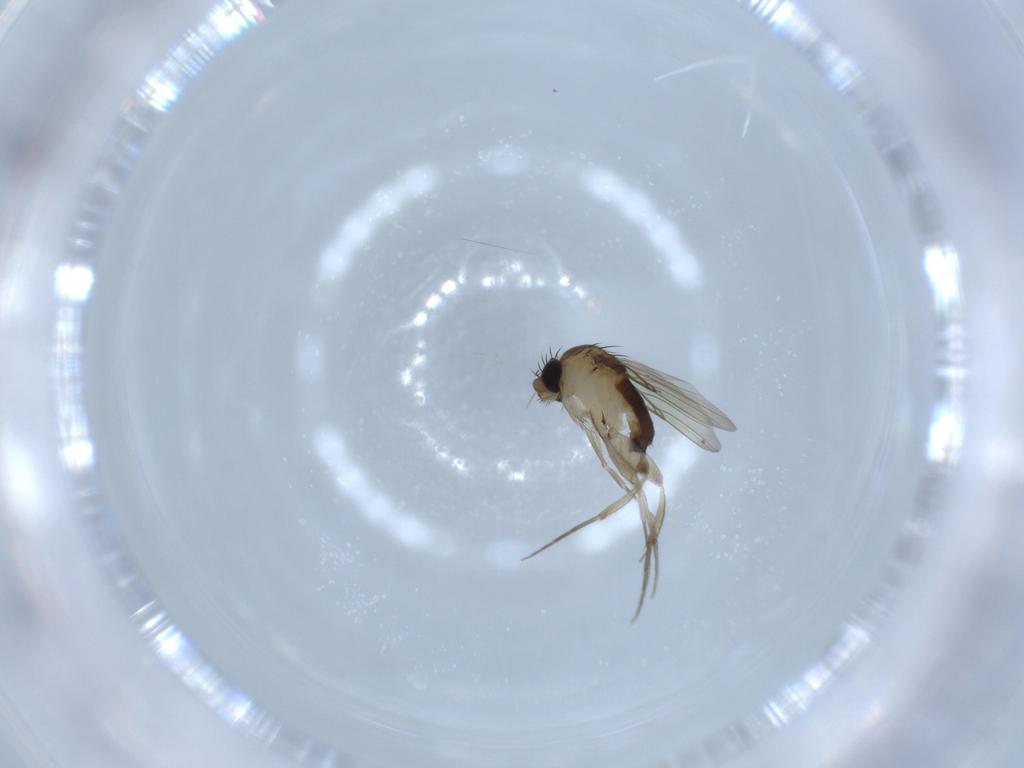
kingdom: Animalia
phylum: Arthropoda
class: Insecta
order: Diptera
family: Phoridae
